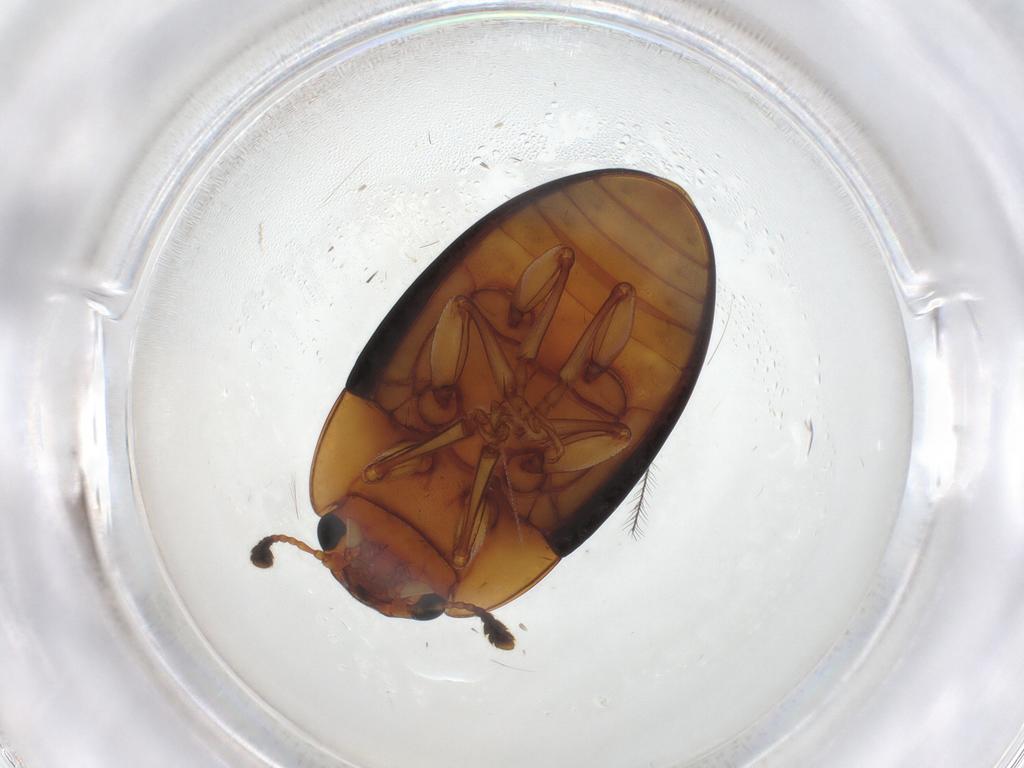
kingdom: Animalia
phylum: Arthropoda
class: Insecta
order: Coleoptera
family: Erotylidae
